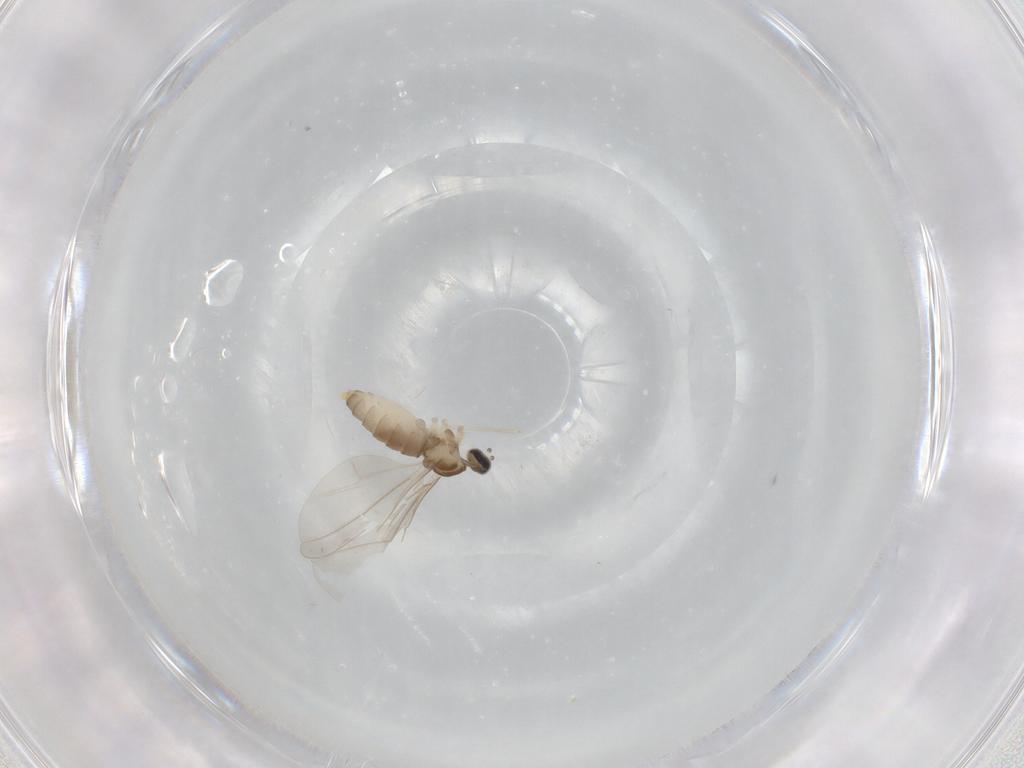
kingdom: Animalia
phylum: Arthropoda
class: Insecta
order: Diptera
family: Cecidomyiidae
